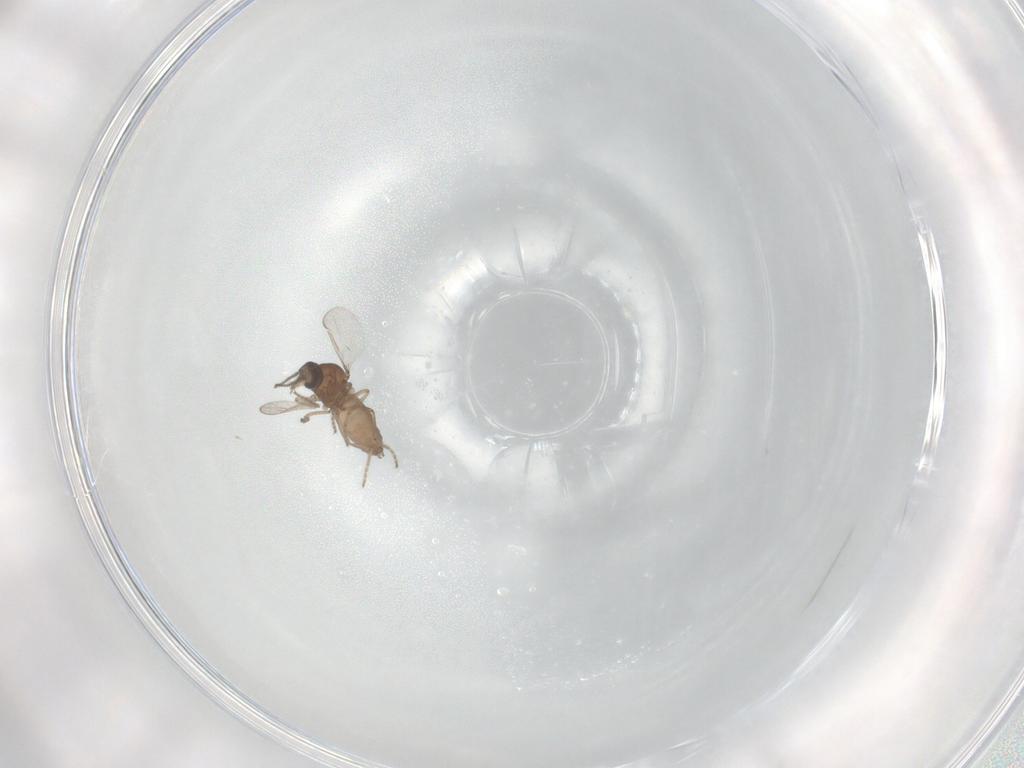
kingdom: Animalia
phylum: Arthropoda
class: Insecta
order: Diptera
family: Ceratopogonidae
